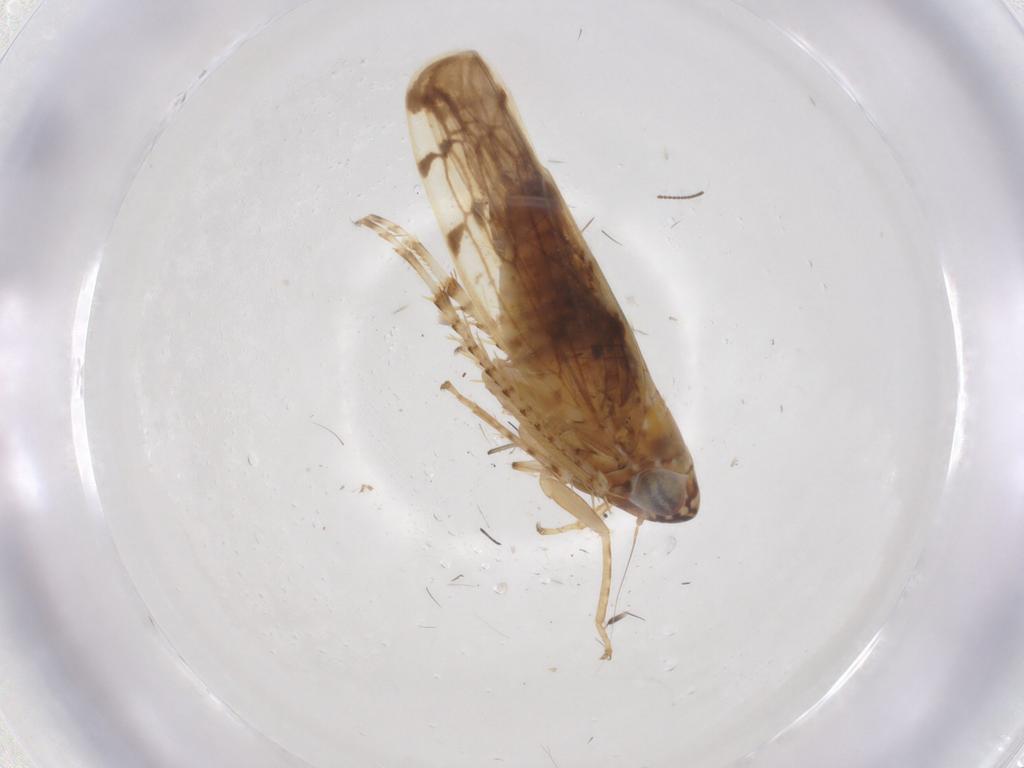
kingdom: Animalia
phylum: Arthropoda
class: Insecta
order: Hemiptera
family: Cicadellidae
